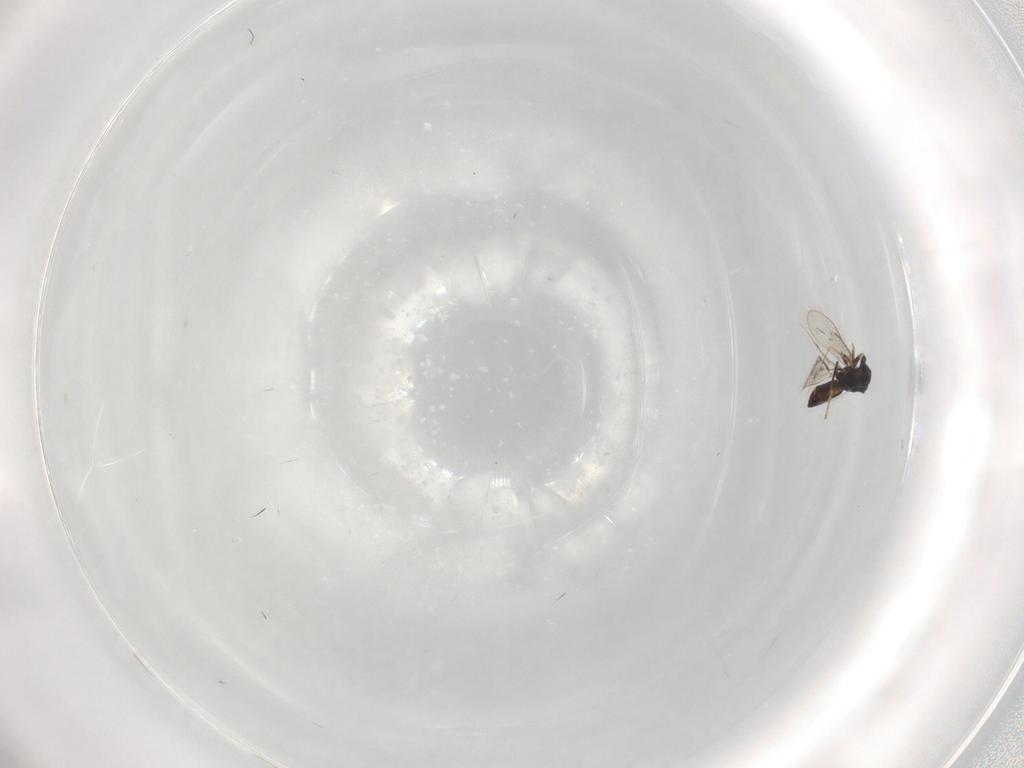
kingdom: Animalia
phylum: Arthropoda
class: Insecta
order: Hymenoptera
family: Eulophidae
